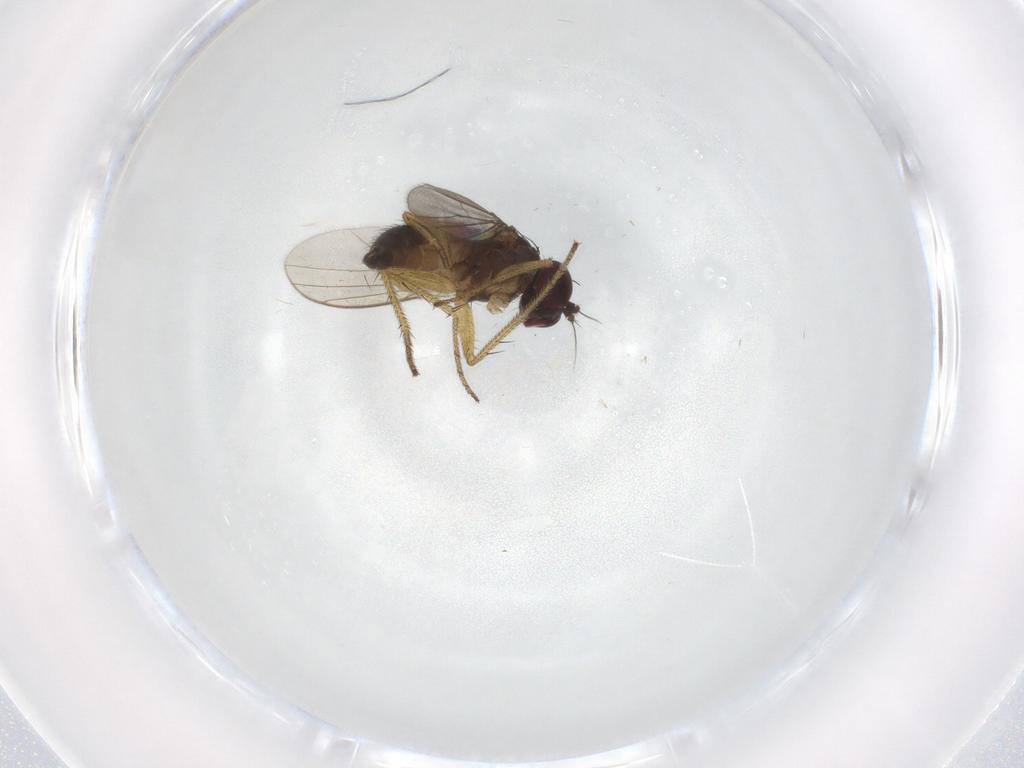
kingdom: Animalia
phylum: Arthropoda
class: Insecta
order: Diptera
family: Dolichopodidae
